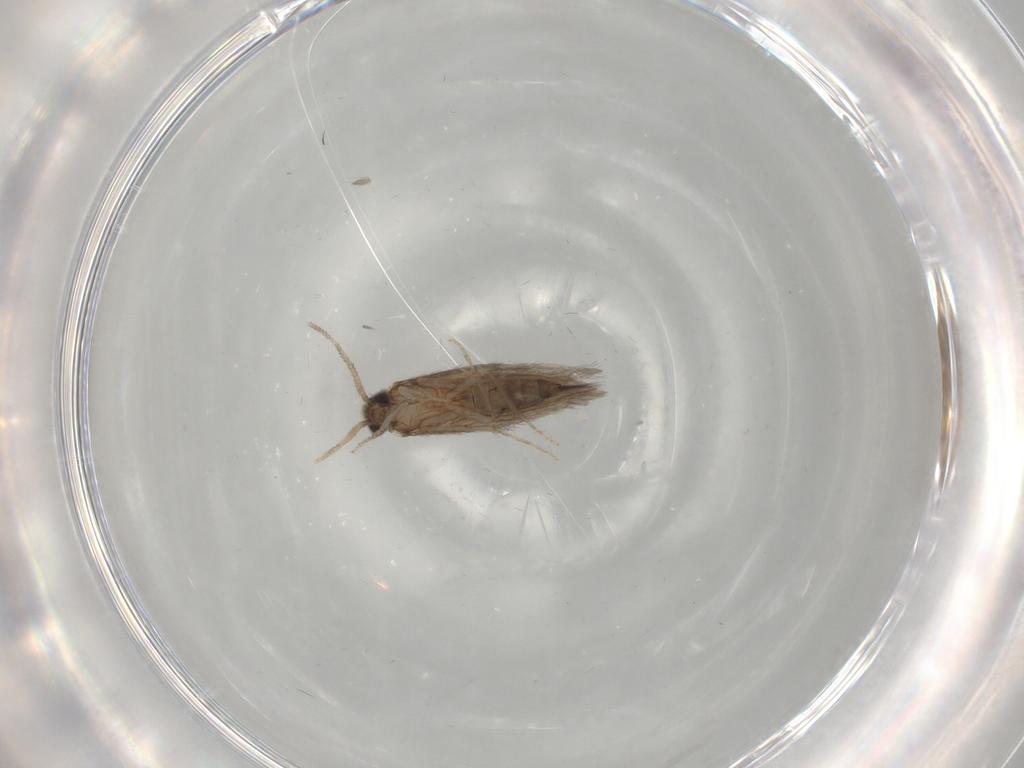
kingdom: Animalia
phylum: Arthropoda
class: Insecta
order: Trichoptera
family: Hydroptilidae
